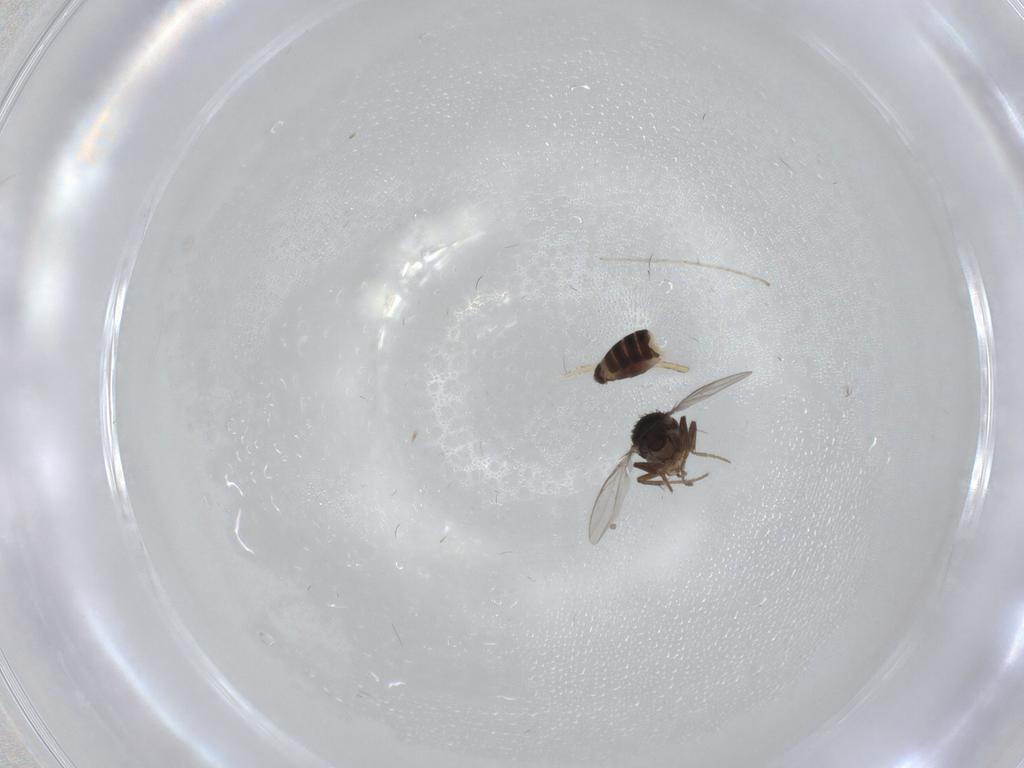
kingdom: Animalia
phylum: Arthropoda
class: Insecta
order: Diptera
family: Sphaeroceridae
